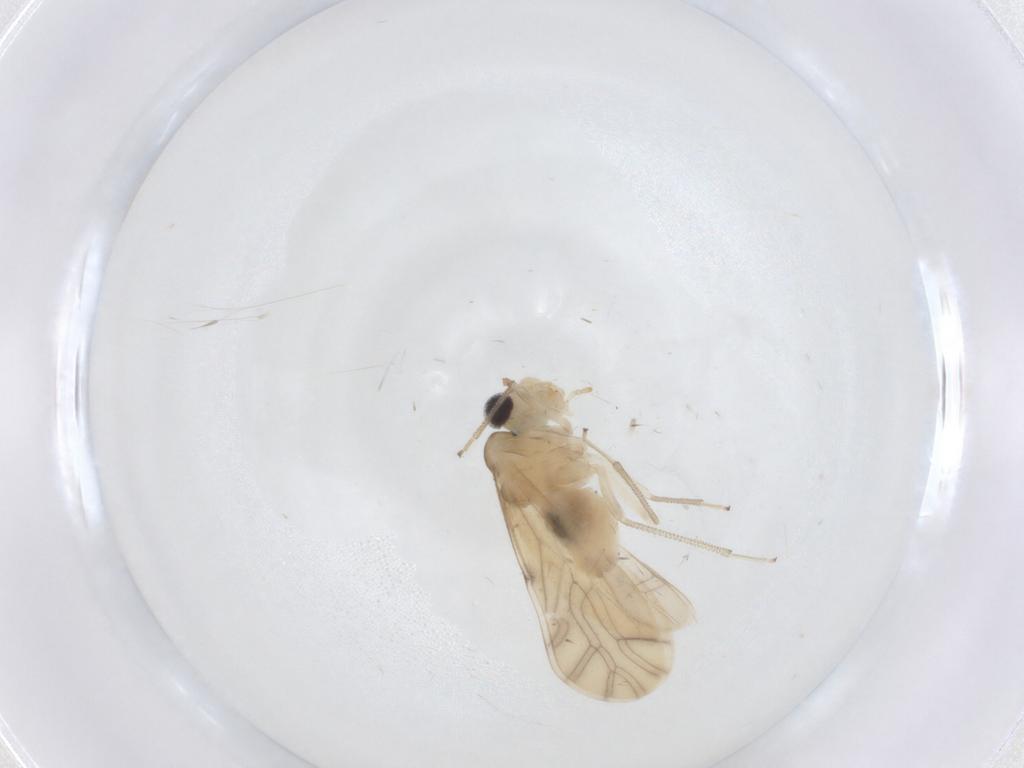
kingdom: Animalia
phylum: Arthropoda
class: Insecta
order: Psocodea
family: Caeciliusidae
